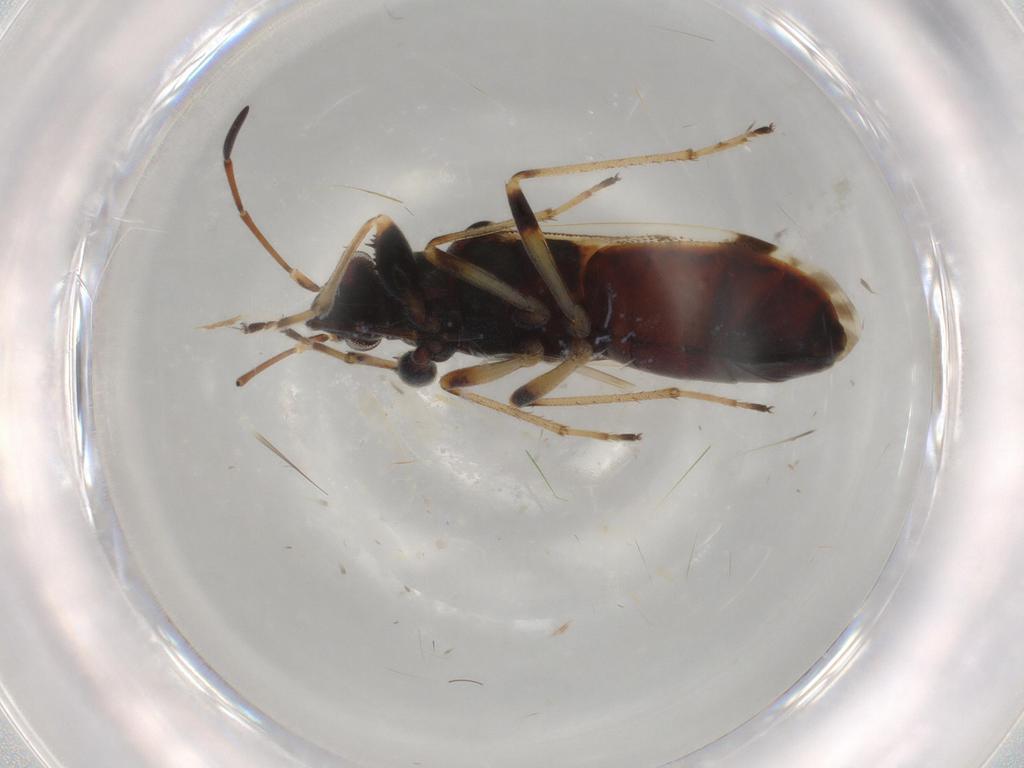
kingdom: Animalia
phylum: Arthropoda
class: Insecta
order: Hemiptera
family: Rhyparochromidae
